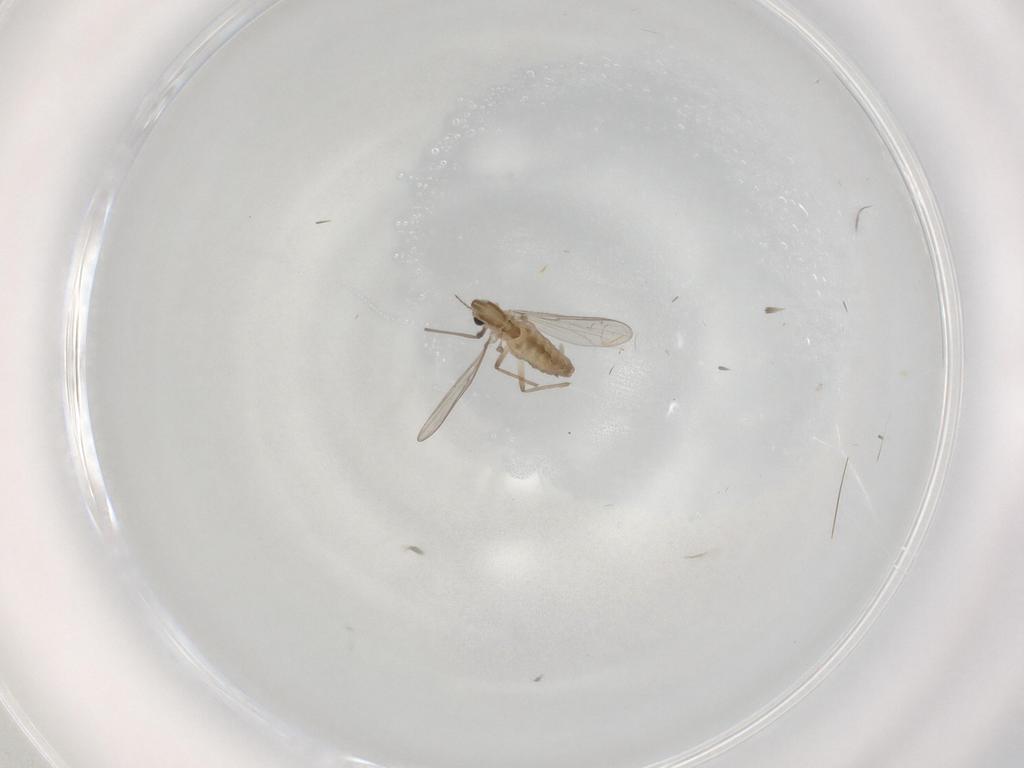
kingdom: Animalia
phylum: Arthropoda
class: Insecta
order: Diptera
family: Chironomidae
